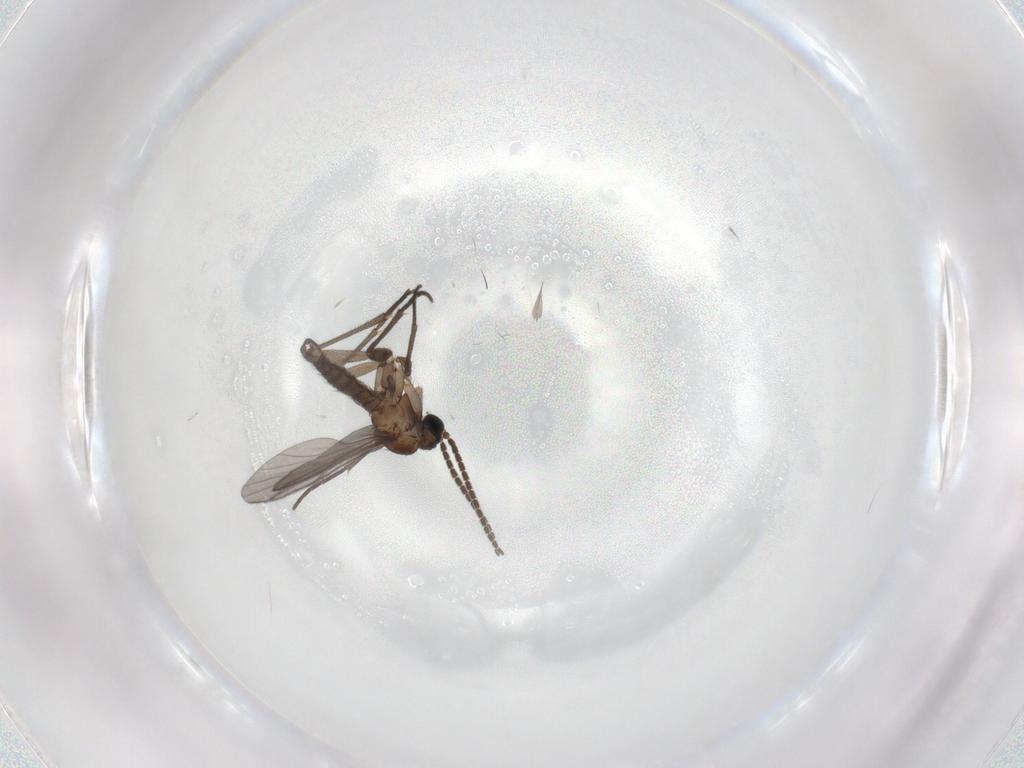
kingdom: Animalia
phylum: Arthropoda
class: Insecta
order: Diptera
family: Sciaridae
